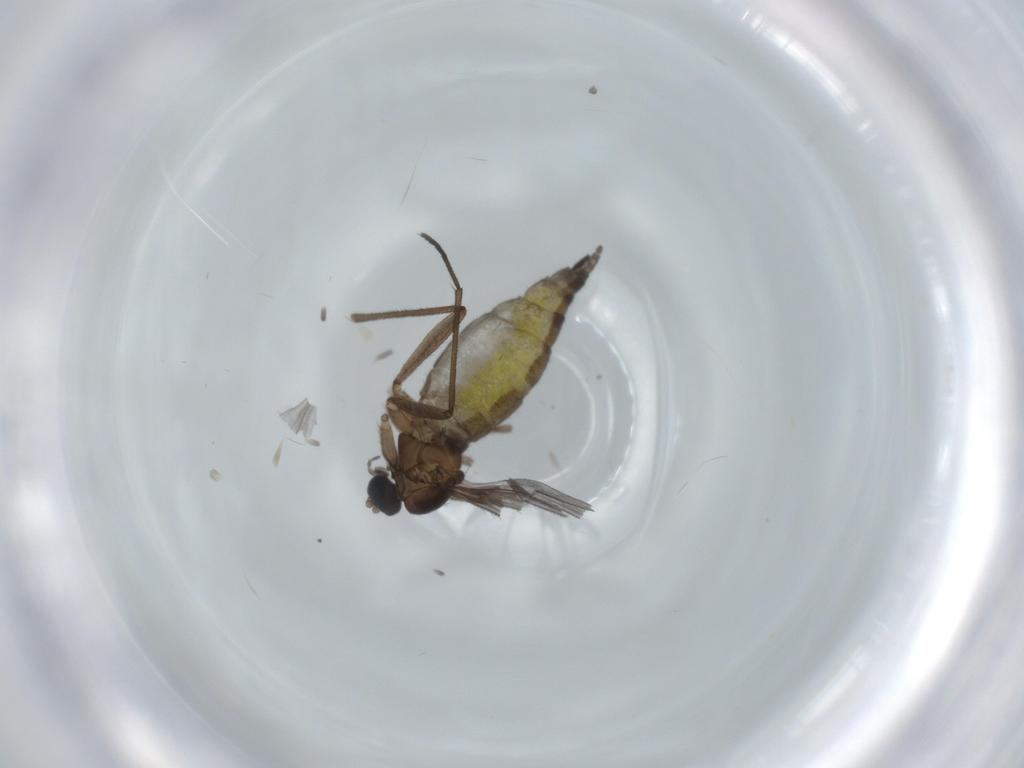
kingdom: Animalia
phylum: Arthropoda
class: Insecta
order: Diptera
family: Sciaridae
